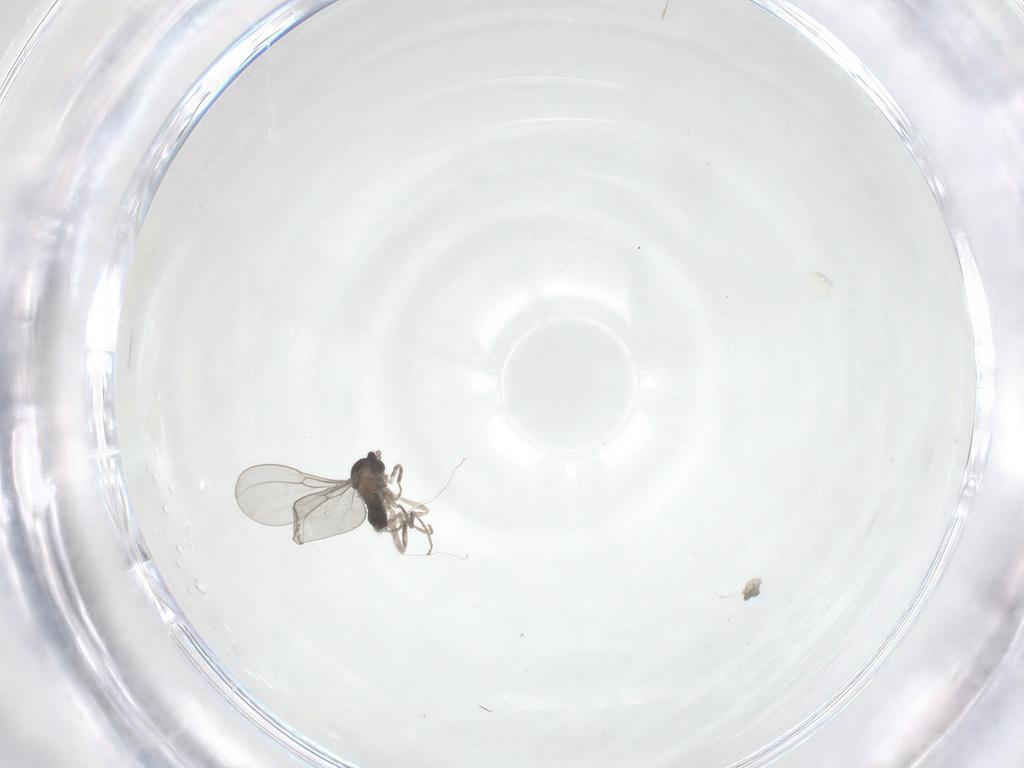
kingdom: Animalia
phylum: Arthropoda
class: Insecta
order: Diptera
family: Cecidomyiidae
